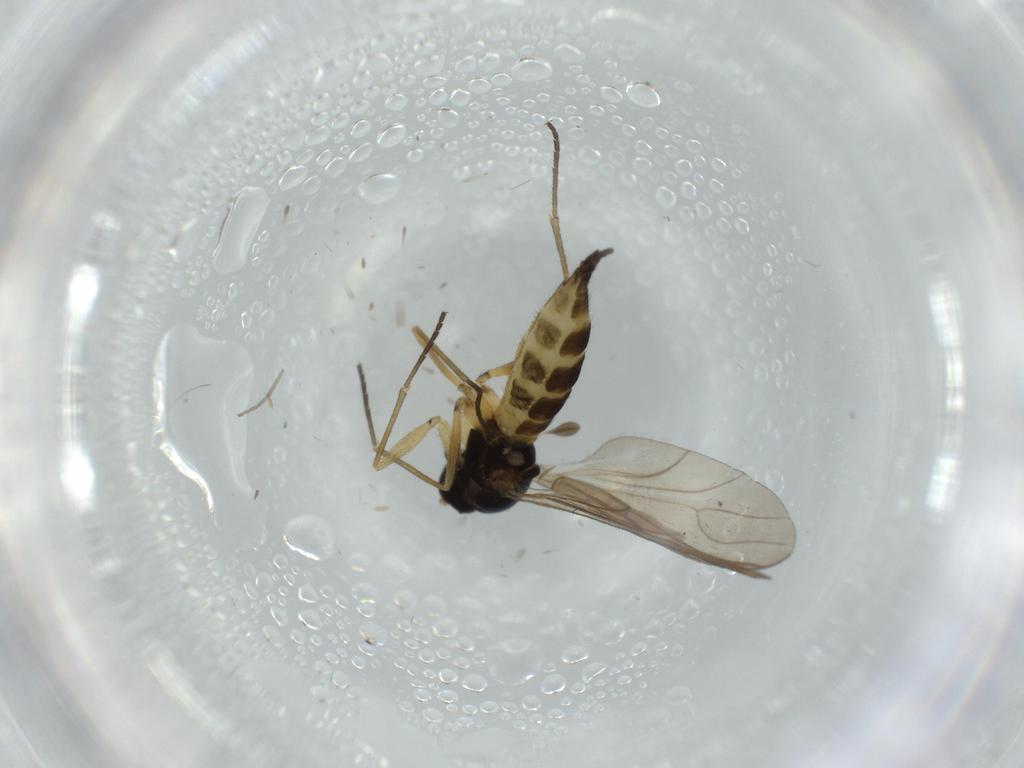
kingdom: Animalia
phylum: Arthropoda
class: Insecta
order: Diptera
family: Sciaridae
